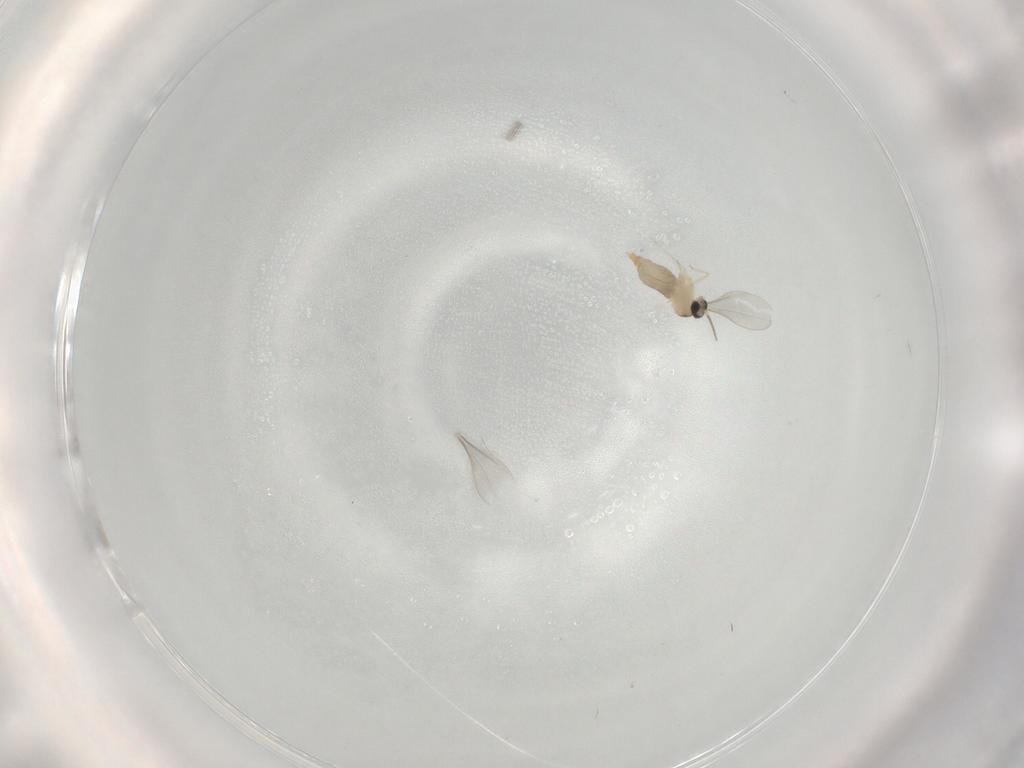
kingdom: Animalia
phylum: Arthropoda
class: Insecta
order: Diptera
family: Cecidomyiidae
